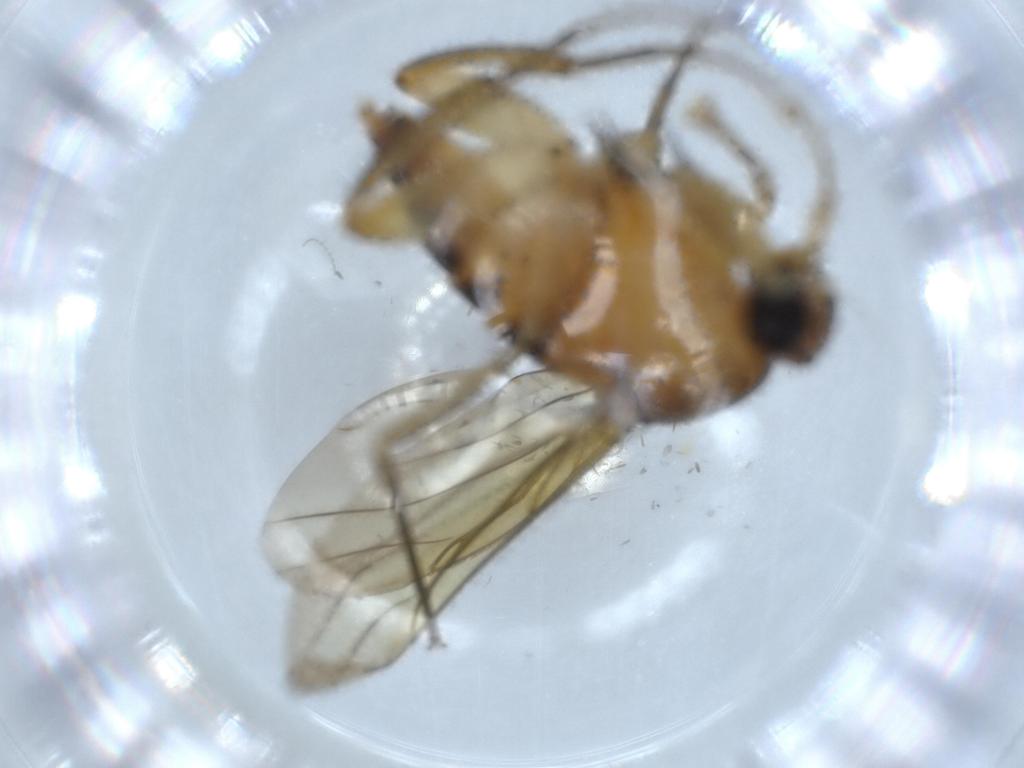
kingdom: Animalia
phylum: Arthropoda
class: Insecta
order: Diptera
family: Phoridae
